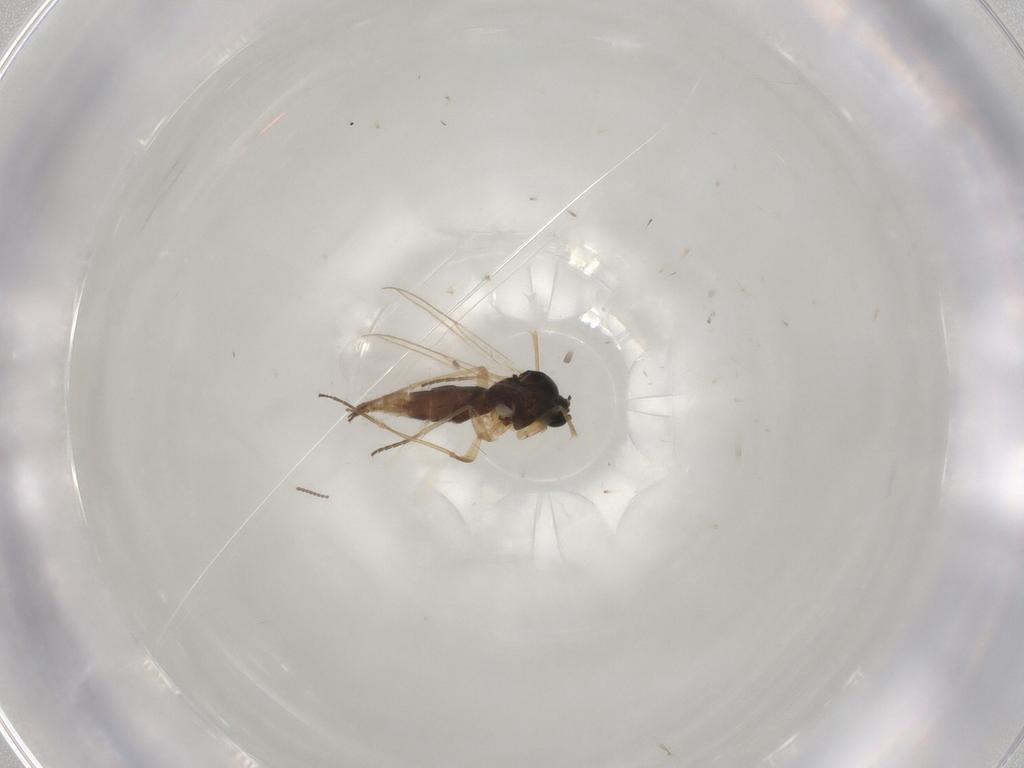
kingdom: Animalia
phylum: Arthropoda
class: Insecta
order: Diptera
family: Sciaridae
